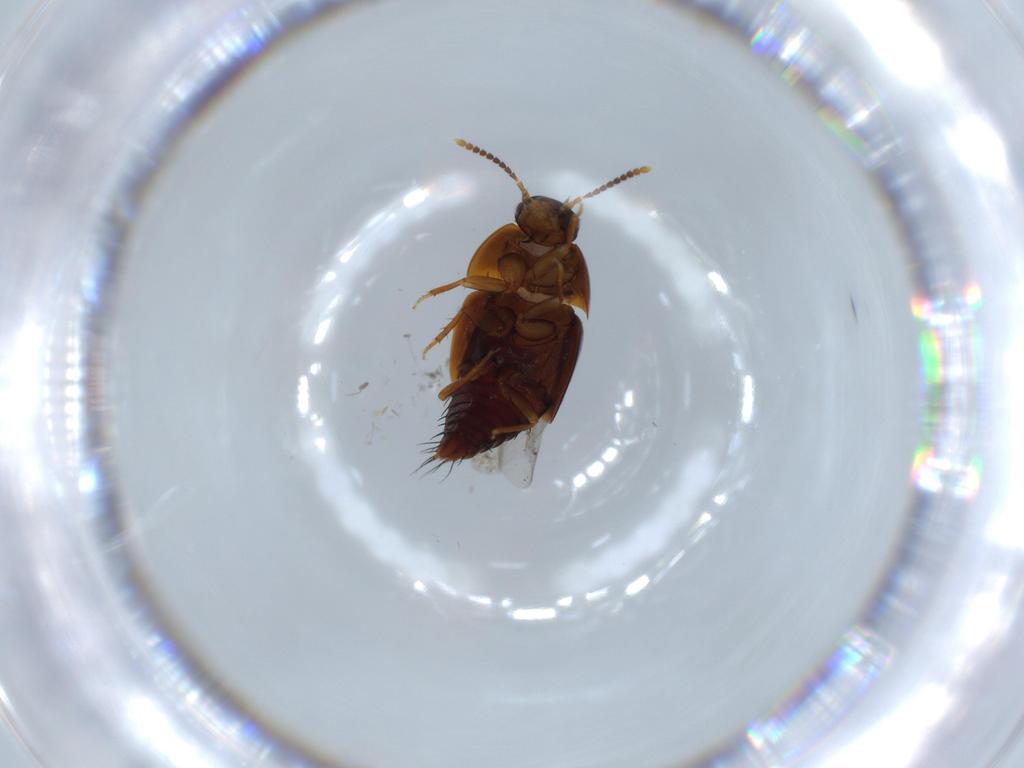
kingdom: Animalia
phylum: Arthropoda
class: Insecta
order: Coleoptera
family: Staphylinidae
